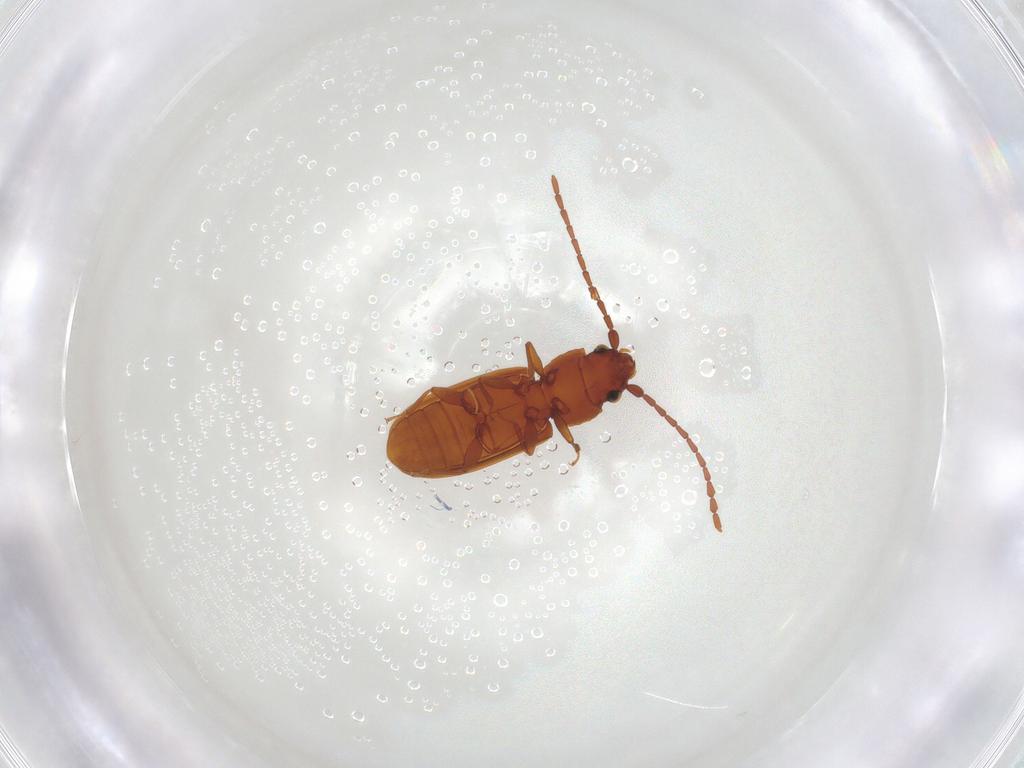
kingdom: Animalia
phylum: Arthropoda
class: Insecta
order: Coleoptera
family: Laemophloeidae
